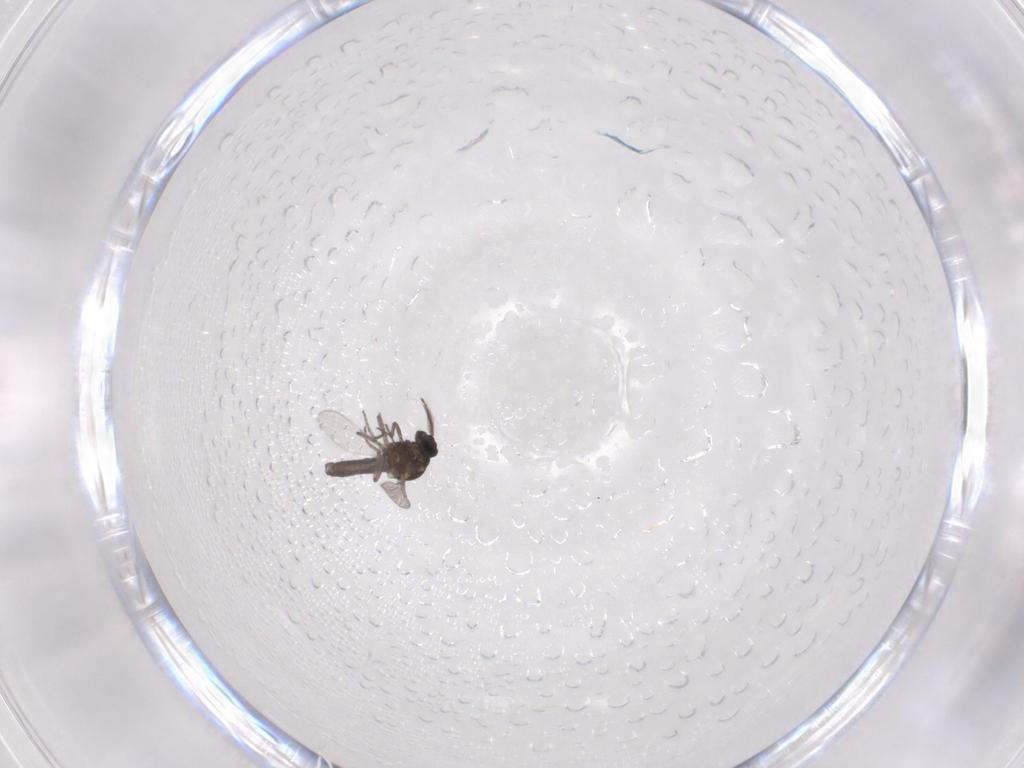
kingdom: Animalia
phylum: Arthropoda
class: Insecta
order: Diptera
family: Ceratopogonidae
